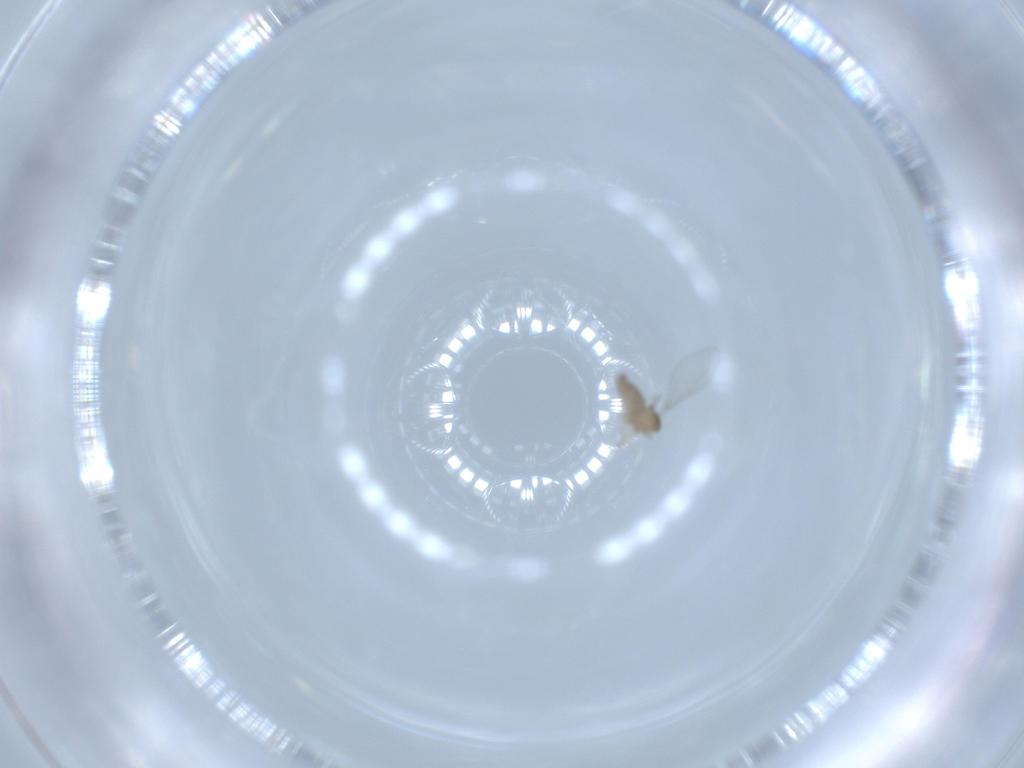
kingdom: Animalia
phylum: Arthropoda
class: Insecta
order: Diptera
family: Cecidomyiidae
